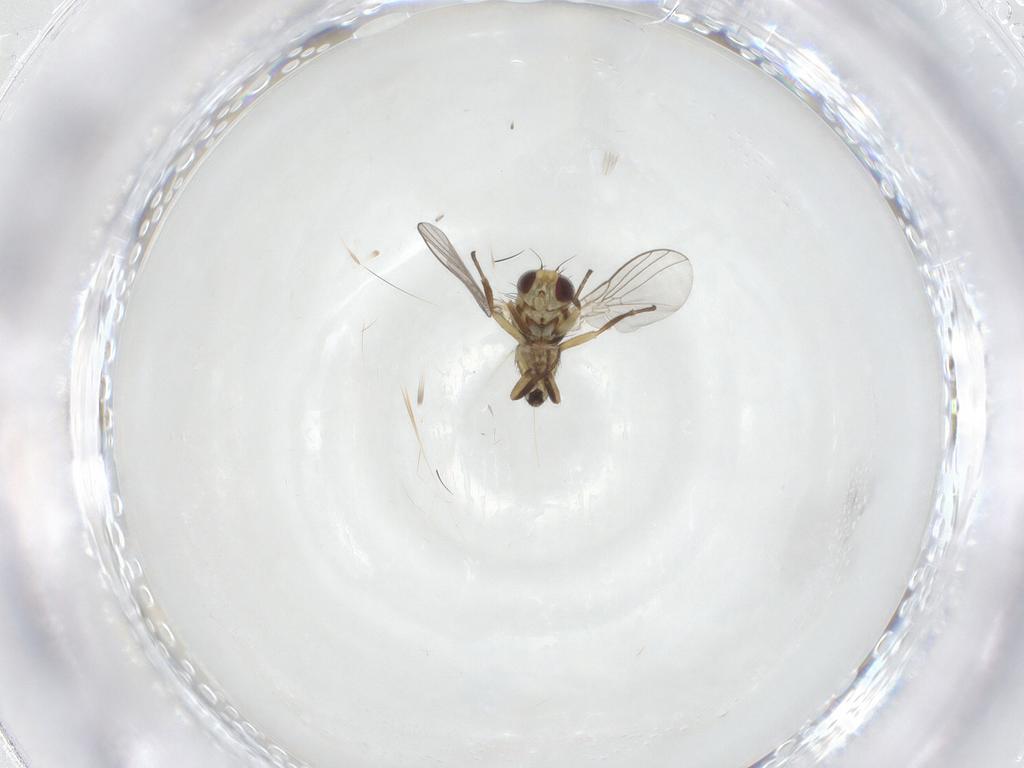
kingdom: Animalia
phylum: Arthropoda
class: Insecta
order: Diptera
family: Agromyzidae
